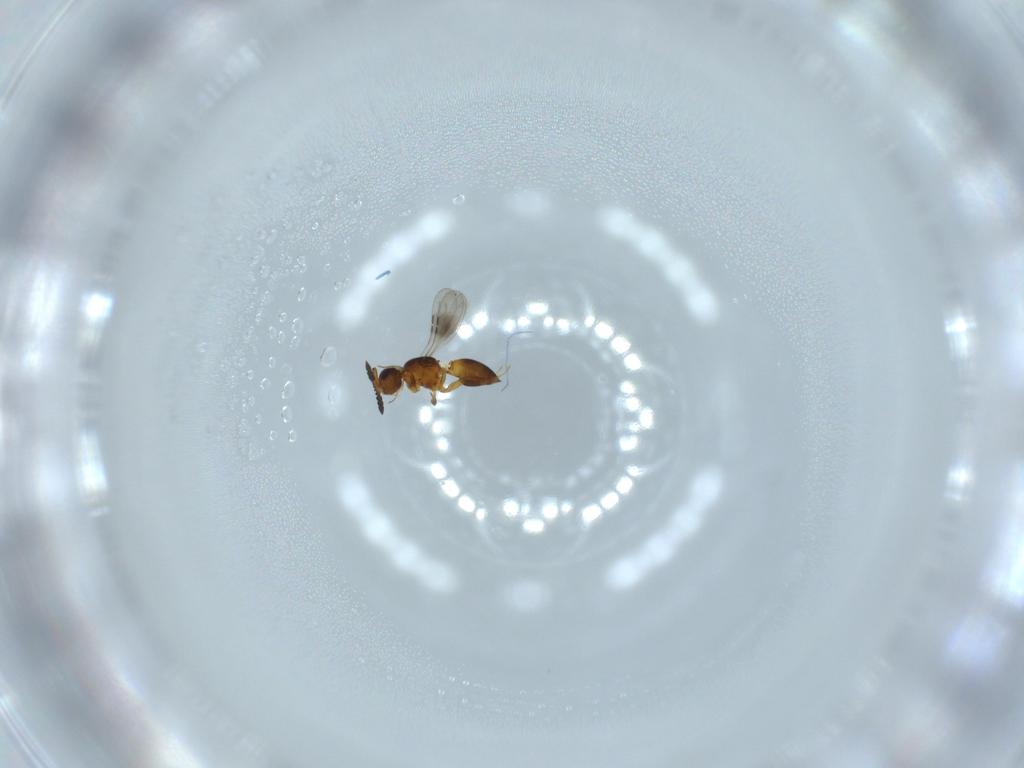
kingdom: Animalia
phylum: Arthropoda
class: Insecta
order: Hymenoptera
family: Ceraphronidae
